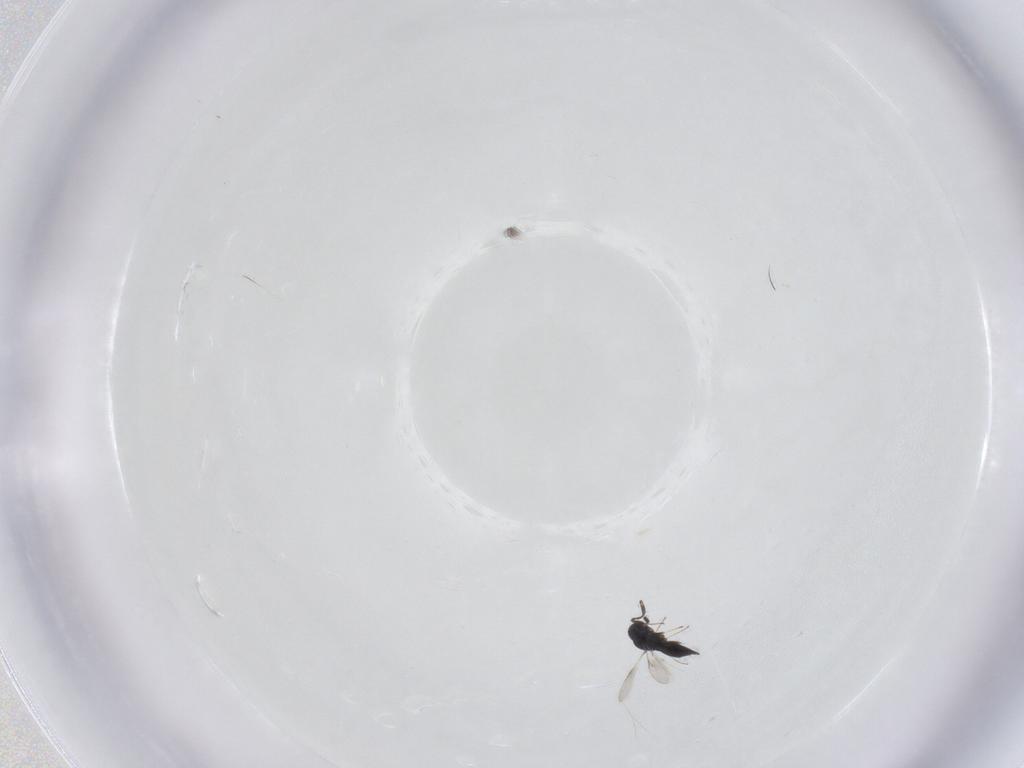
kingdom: Animalia
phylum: Arthropoda
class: Insecta
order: Hymenoptera
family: Scelionidae
